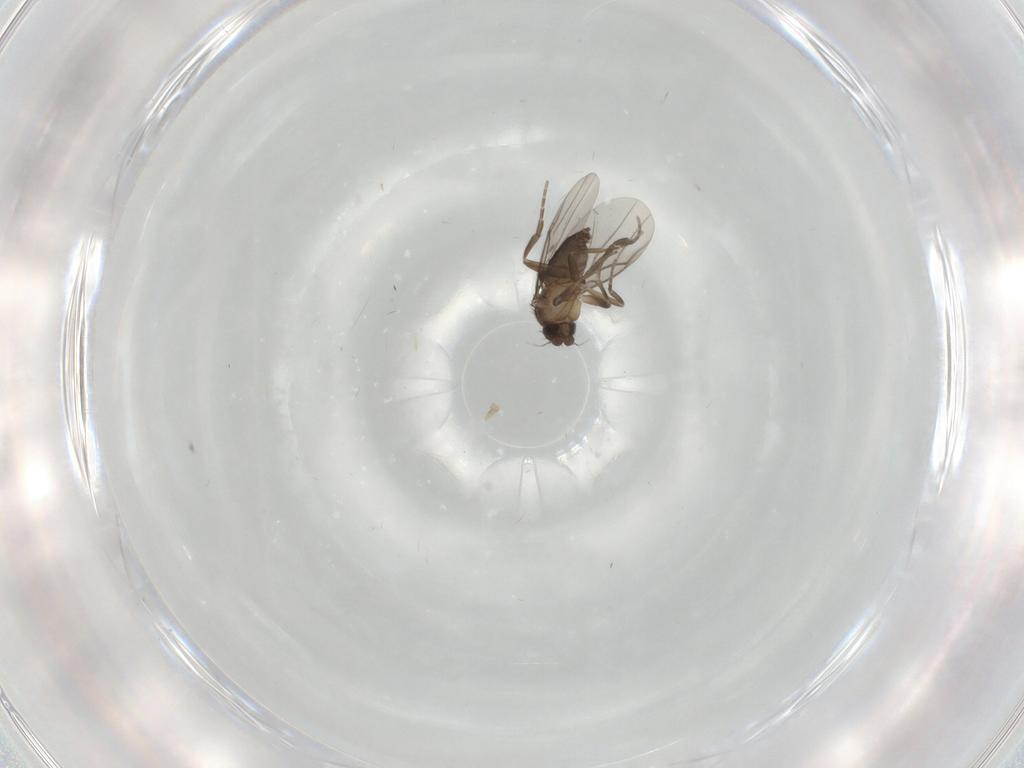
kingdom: Animalia
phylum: Arthropoda
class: Insecta
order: Diptera
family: Phoridae
